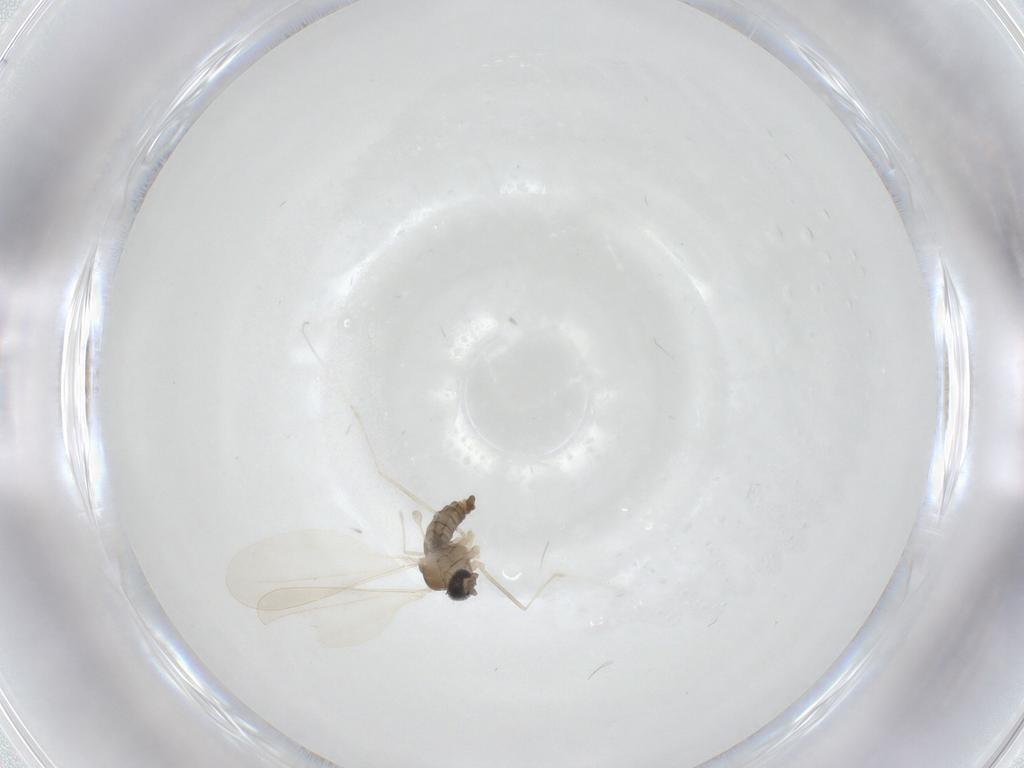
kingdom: Animalia
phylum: Arthropoda
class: Insecta
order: Diptera
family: Cecidomyiidae
